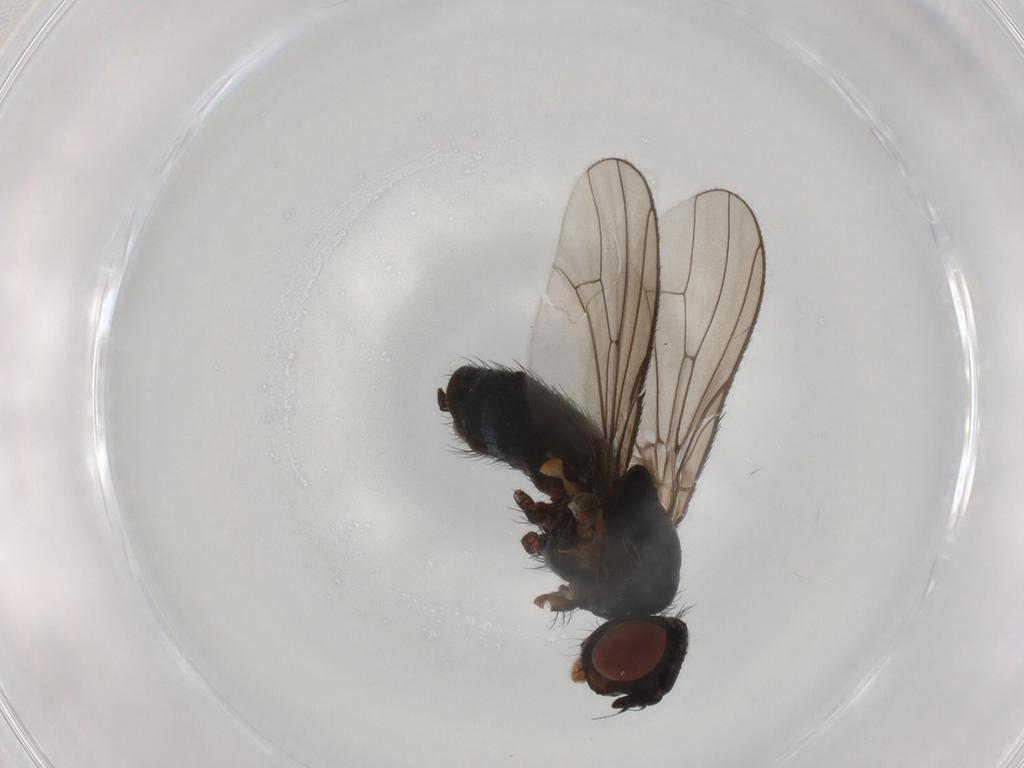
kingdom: Animalia
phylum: Arthropoda
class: Insecta
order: Diptera
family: Anthomyiidae
